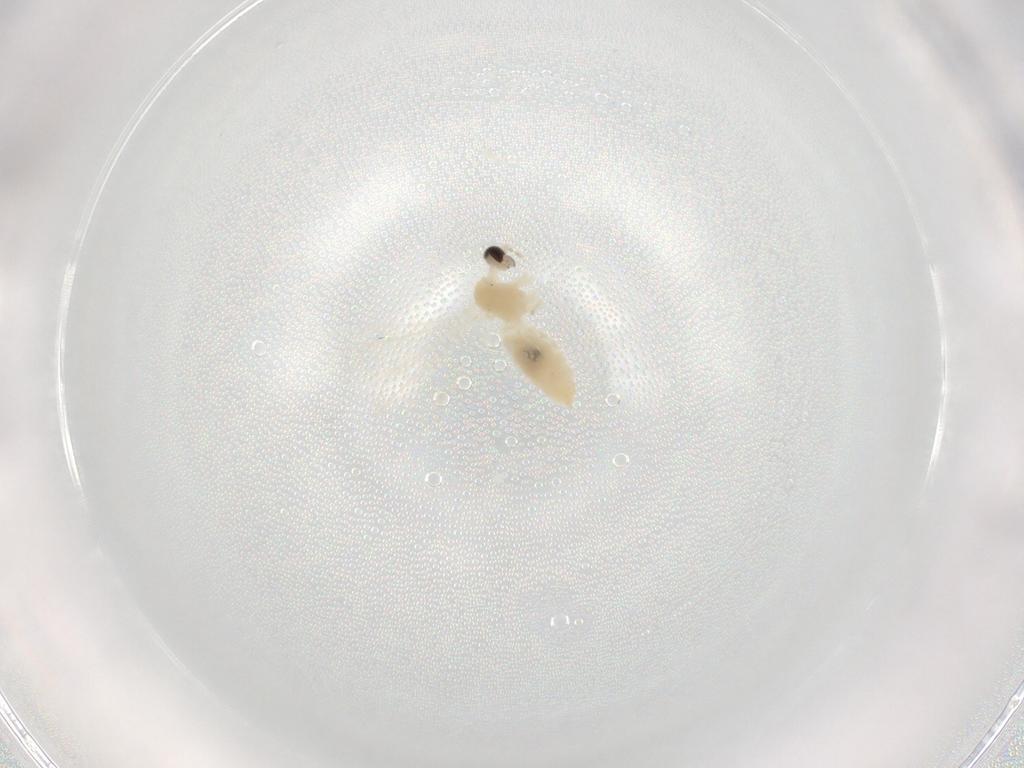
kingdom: Animalia
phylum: Arthropoda
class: Insecta
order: Diptera
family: Cecidomyiidae
